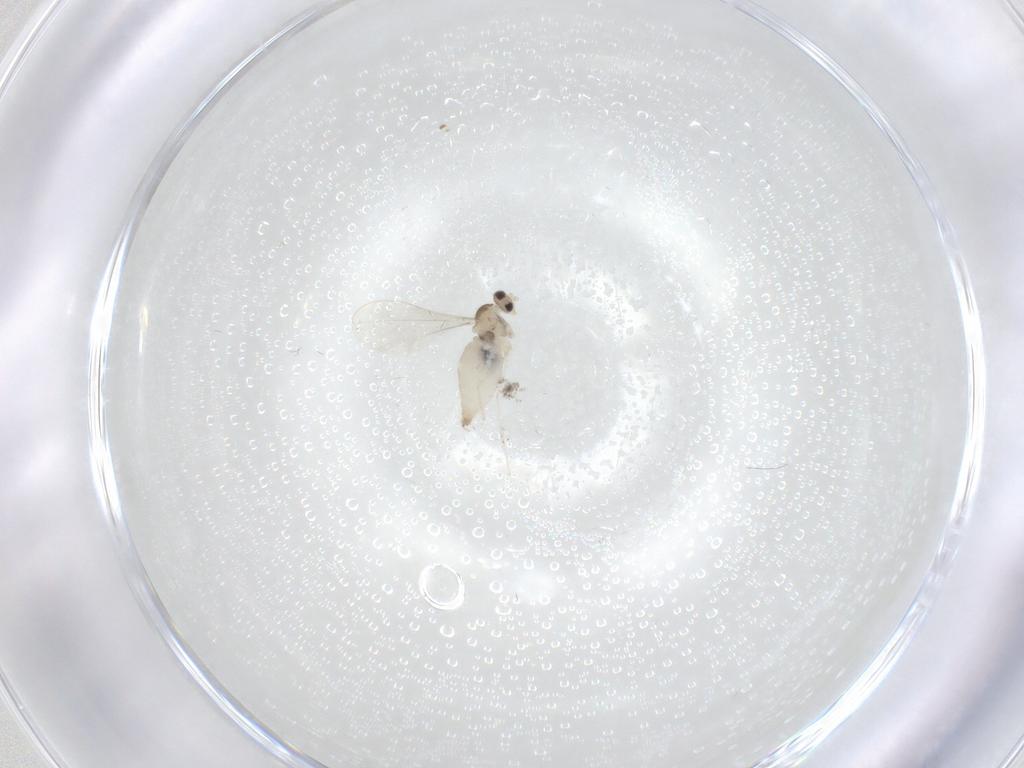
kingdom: Animalia
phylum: Arthropoda
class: Insecta
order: Diptera
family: Cecidomyiidae
